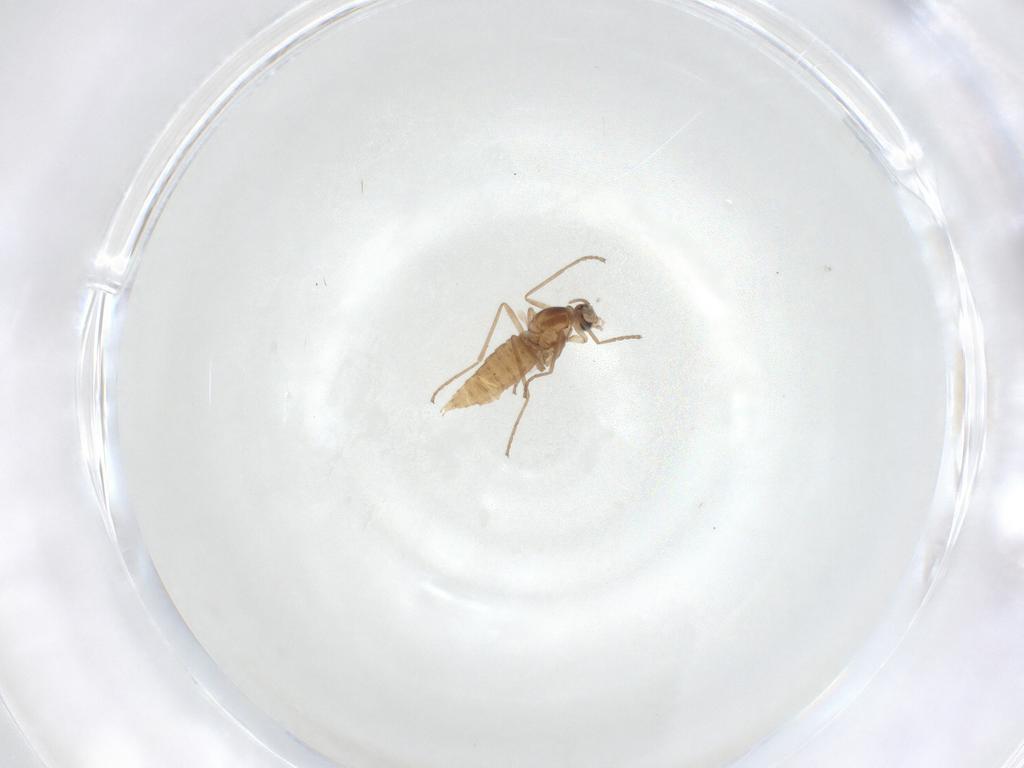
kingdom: Animalia
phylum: Arthropoda
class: Insecta
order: Diptera
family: Cecidomyiidae
